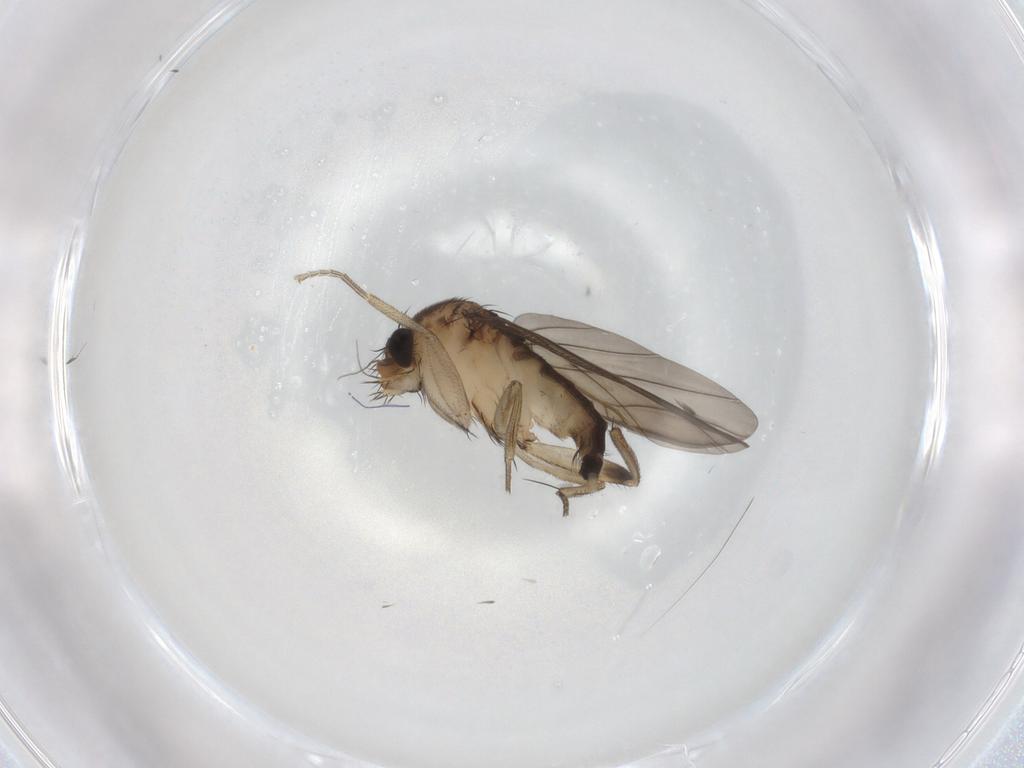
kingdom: Animalia
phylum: Arthropoda
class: Insecta
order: Diptera
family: Phoridae
